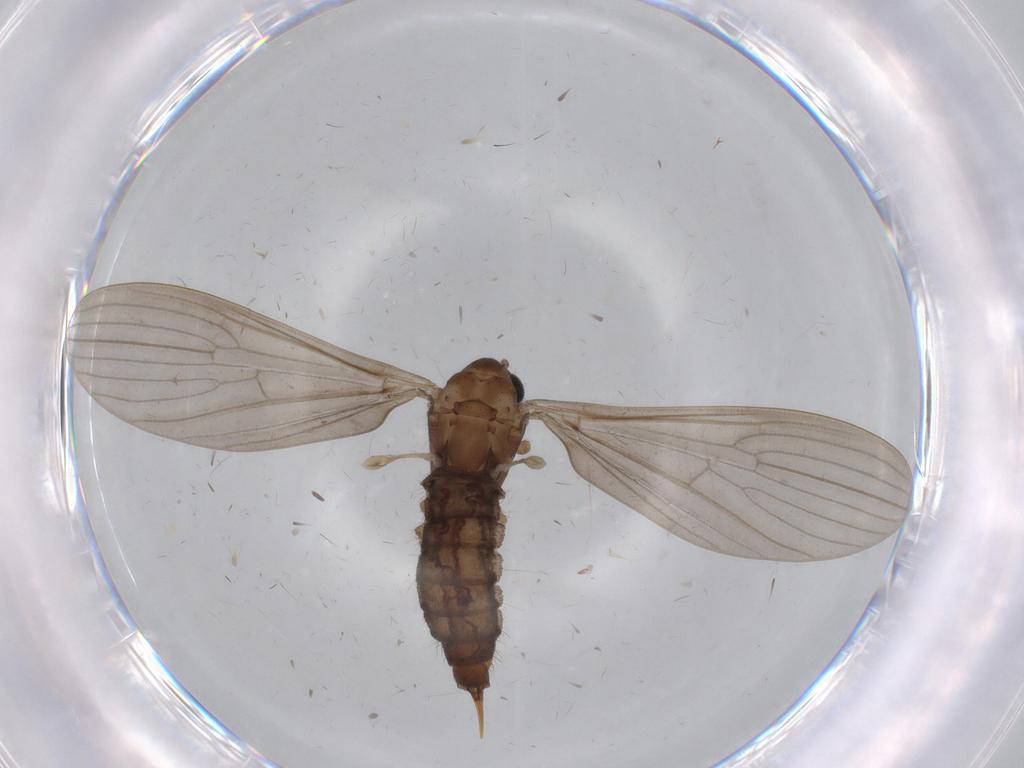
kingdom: Animalia
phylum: Arthropoda
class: Insecta
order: Diptera
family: Limoniidae
